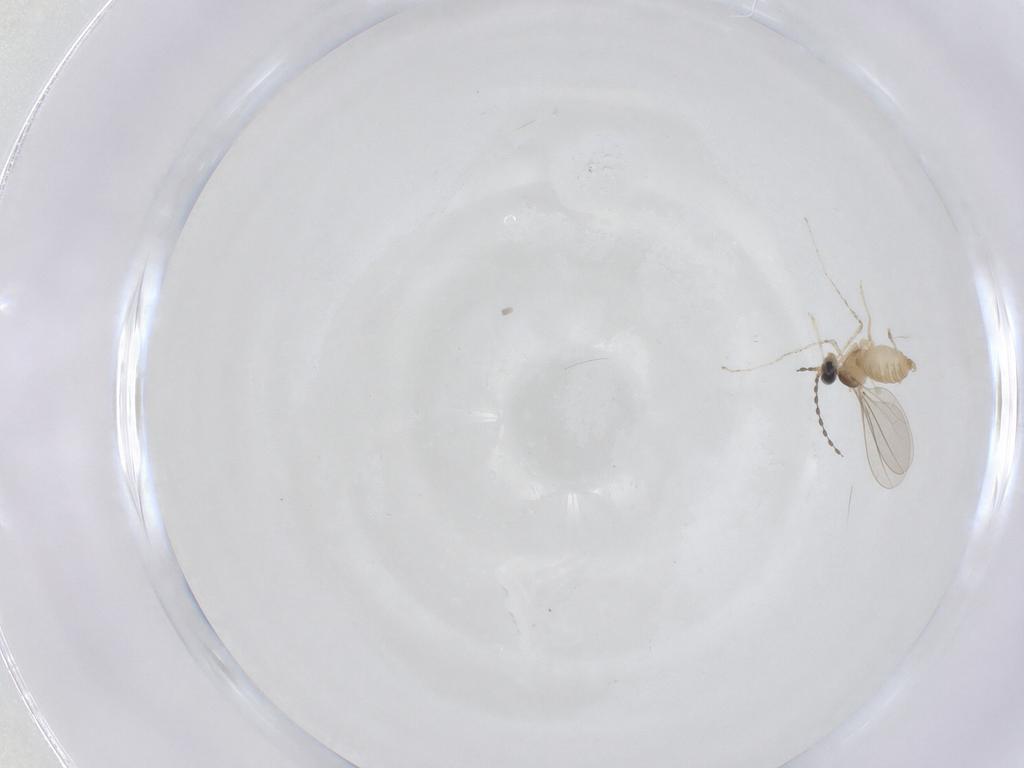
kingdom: Animalia
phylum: Arthropoda
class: Insecta
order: Diptera
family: Cecidomyiidae
